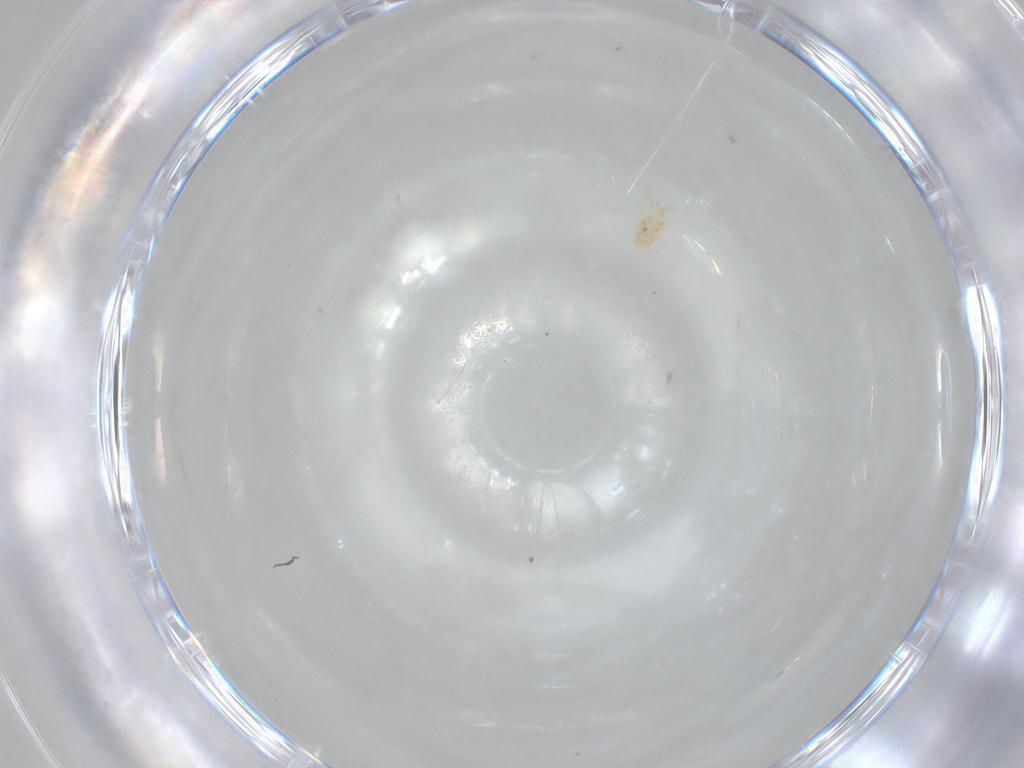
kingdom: Animalia
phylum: Arthropoda
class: Arachnida
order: Mesostigmata
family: Phytoseiidae
